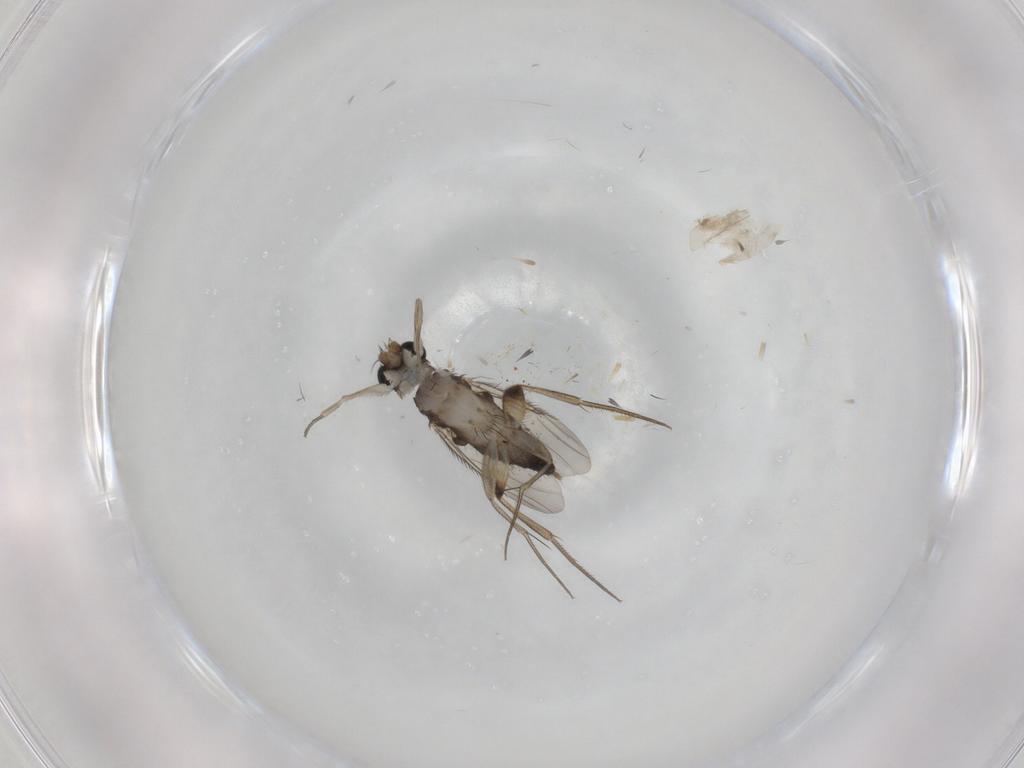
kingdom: Animalia
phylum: Arthropoda
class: Insecta
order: Diptera
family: Phoridae
